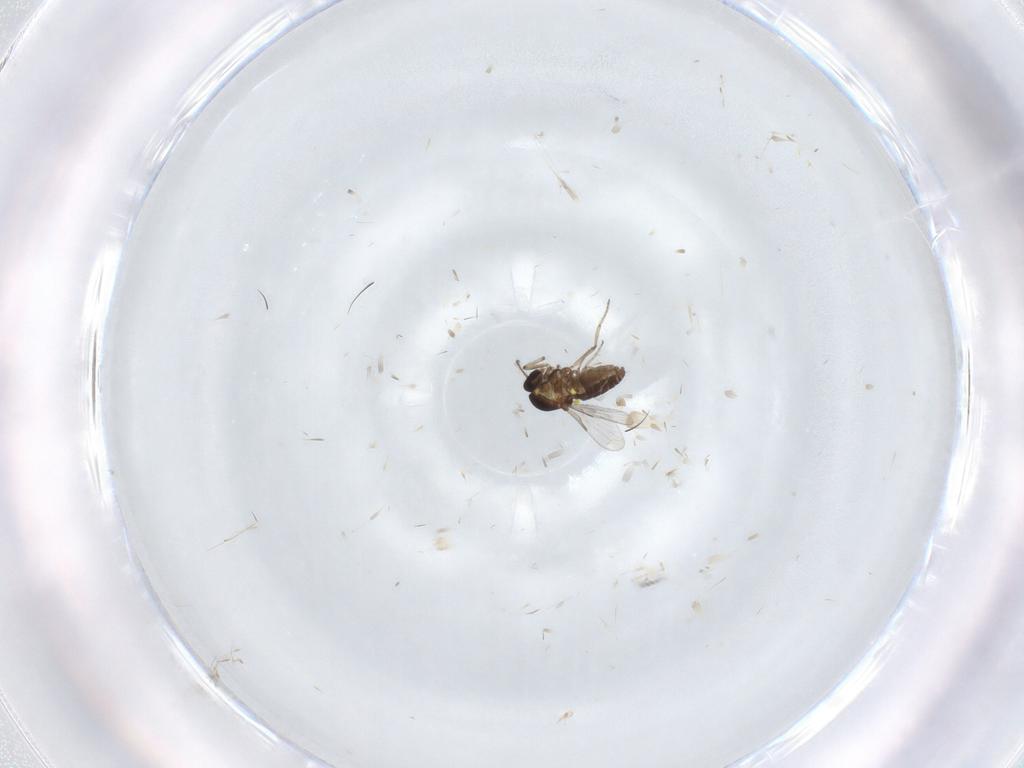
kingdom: Animalia
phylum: Arthropoda
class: Insecta
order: Diptera
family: Ceratopogonidae
